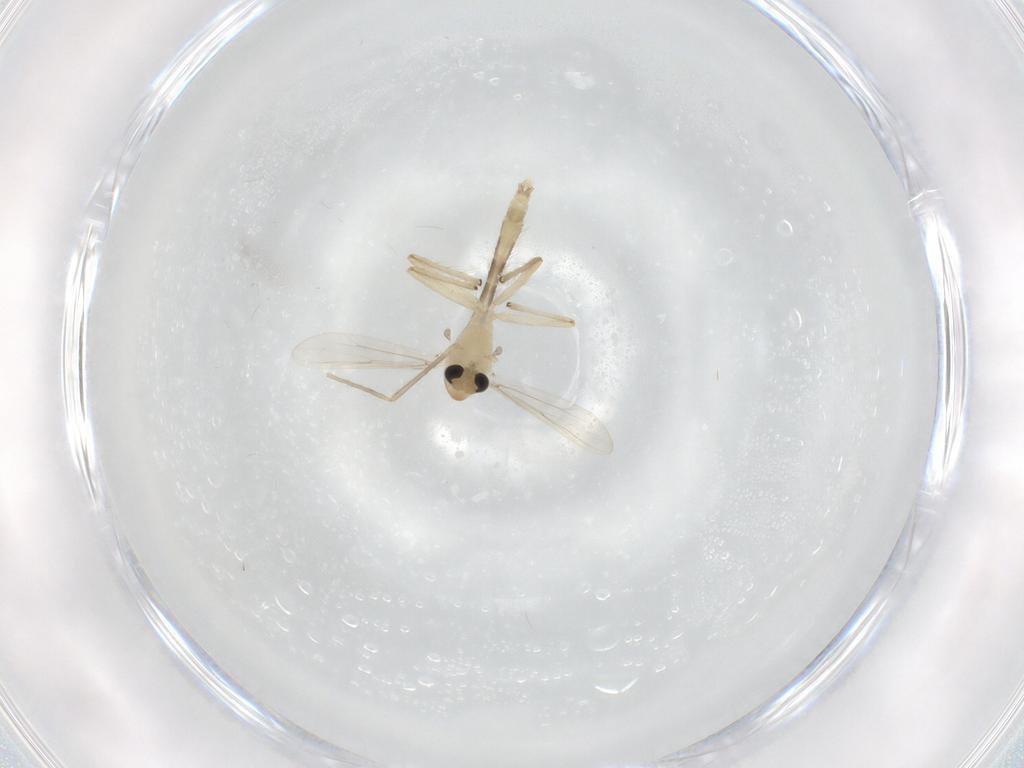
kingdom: Animalia
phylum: Arthropoda
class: Insecta
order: Diptera
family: Chironomidae
